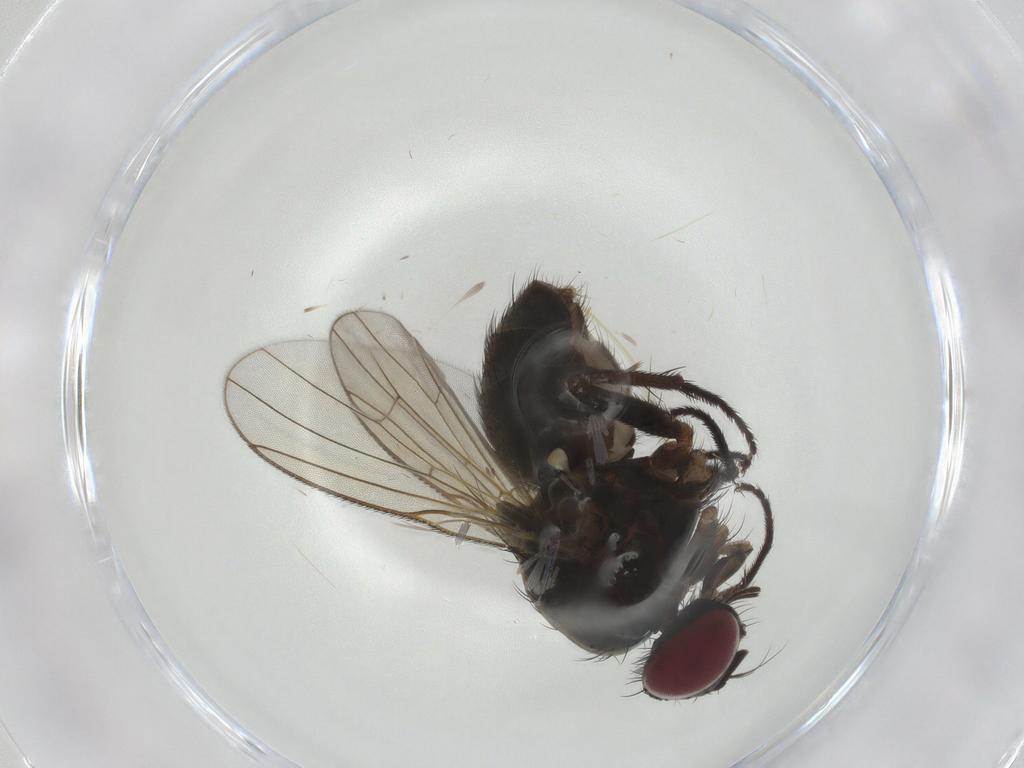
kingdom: Animalia
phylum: Arthropoda
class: Insecta
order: Diptera
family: Muscidae
